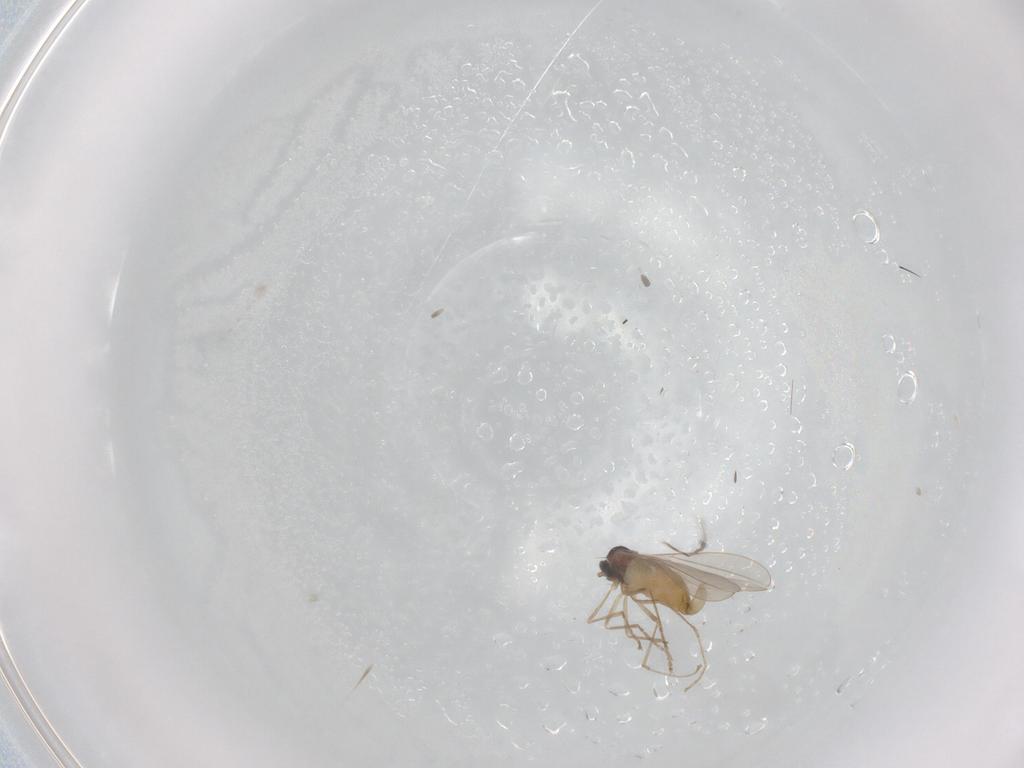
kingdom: Animalia
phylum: Arthropoda
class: Insecta
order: Diptera
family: Cecidomyiidae
